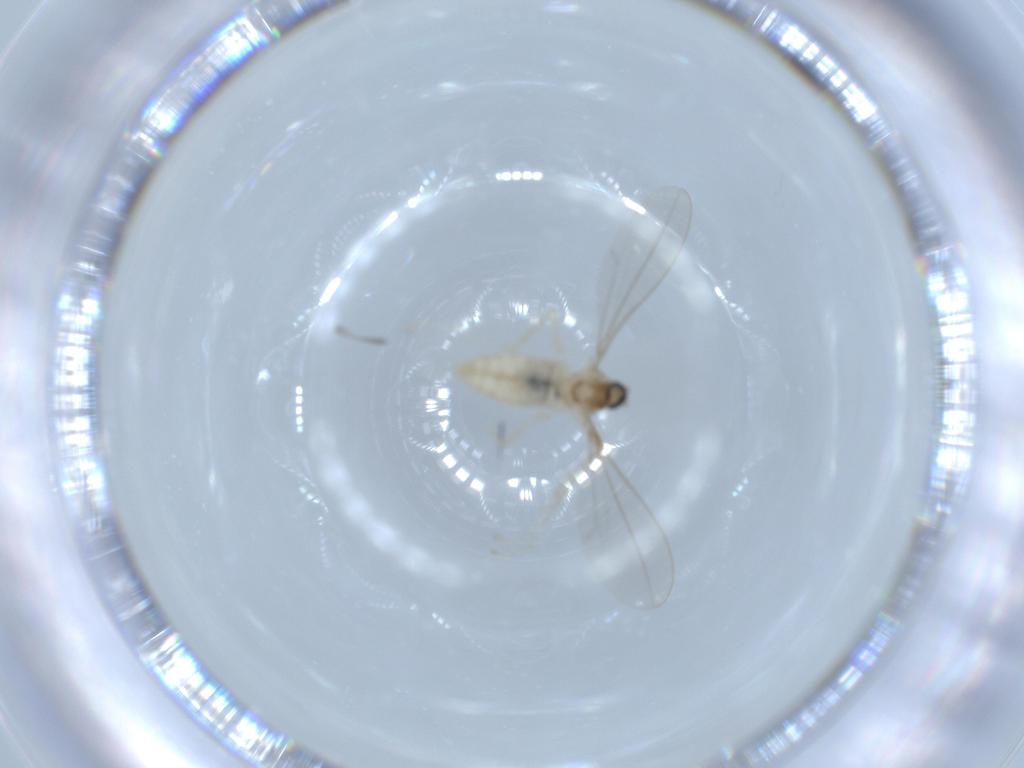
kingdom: Animalia
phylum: Arthropoda
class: Insecta
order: Diptera
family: Cecidomyiidae
